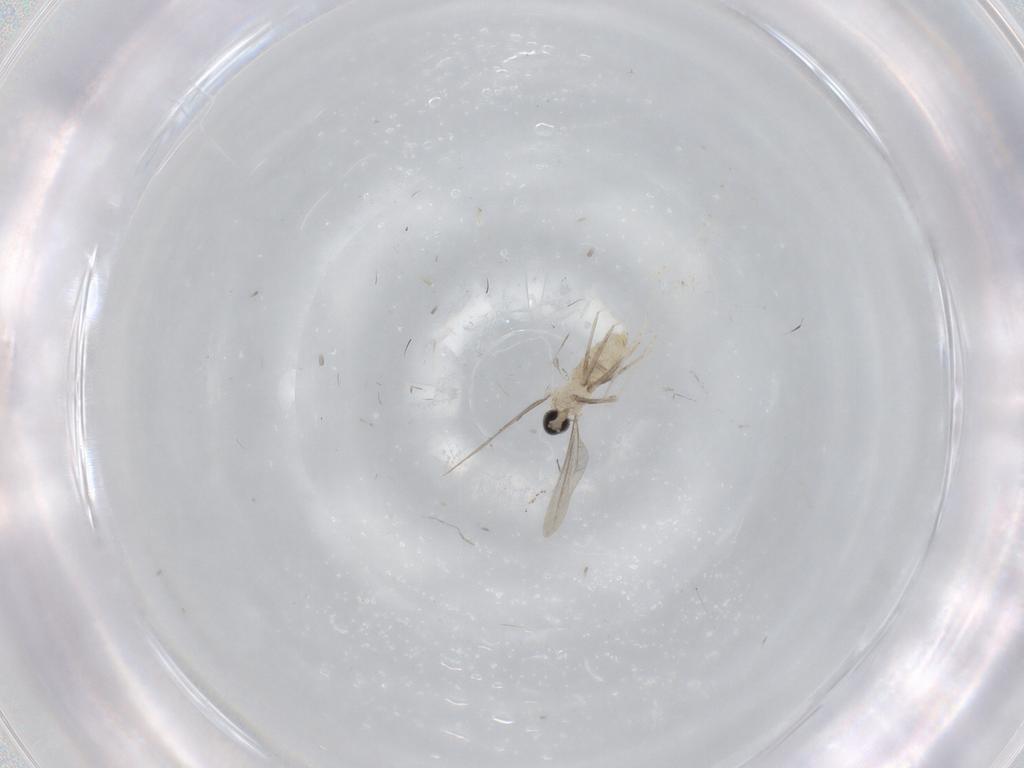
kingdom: Animalia
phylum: Arthropoda
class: Insecta
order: Diptera
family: Cecidomyiidae
